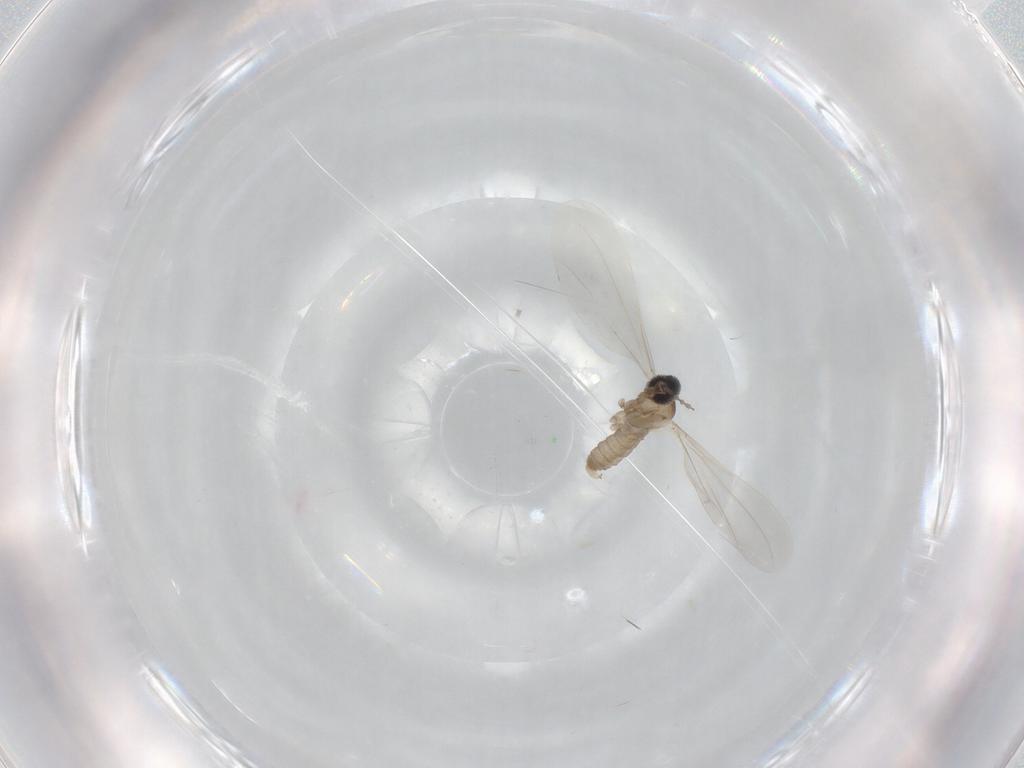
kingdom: Animalia
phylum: Arthropoda
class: Insecta
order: Diptera
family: Cecidomyiidae
